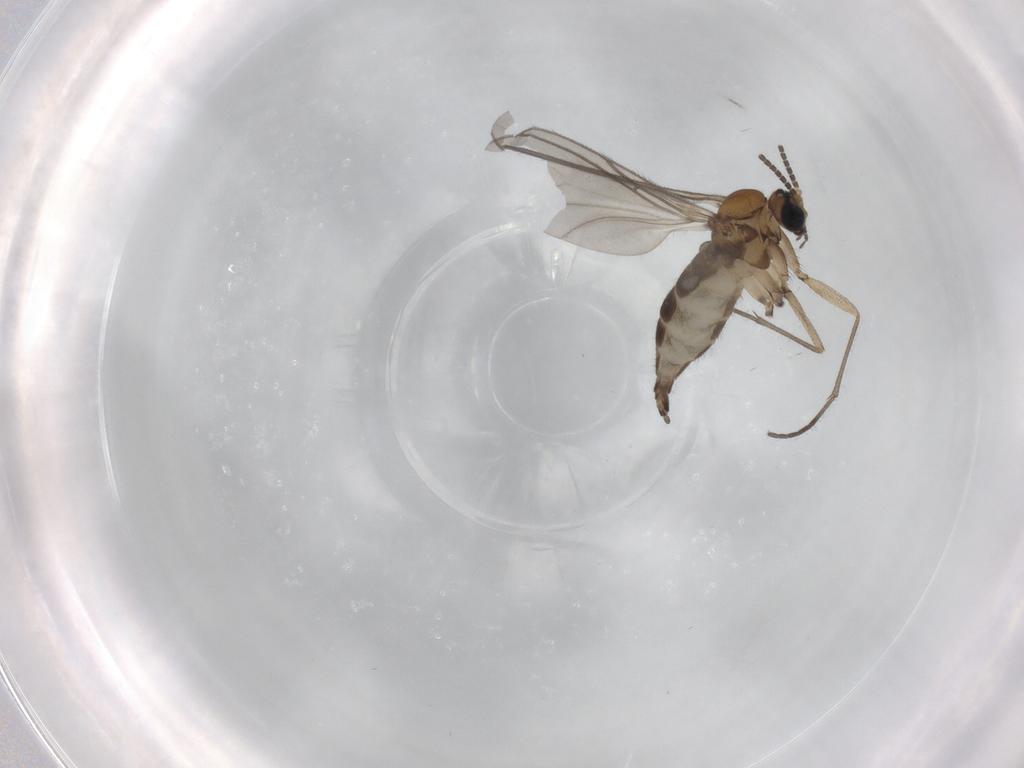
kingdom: Animalia
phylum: Arthropoda
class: Insecta
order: Diptera
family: Sciaridae
